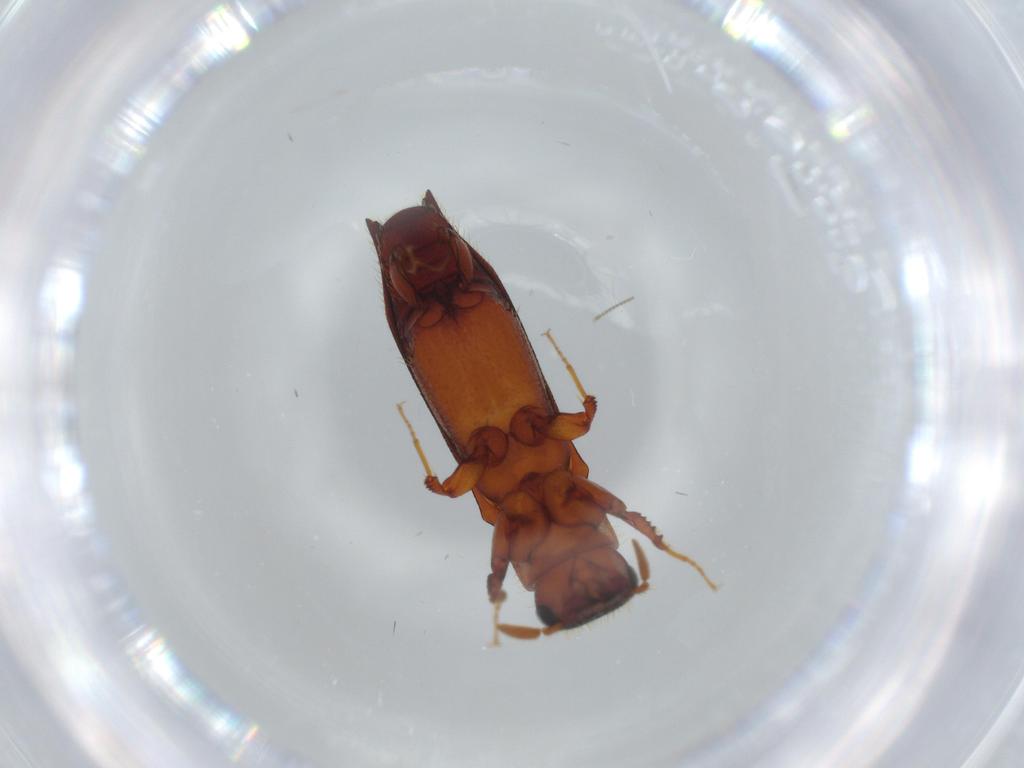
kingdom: Animalia
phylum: Arthropoda
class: Insecta
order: Coleoptera
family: Curculionidae
